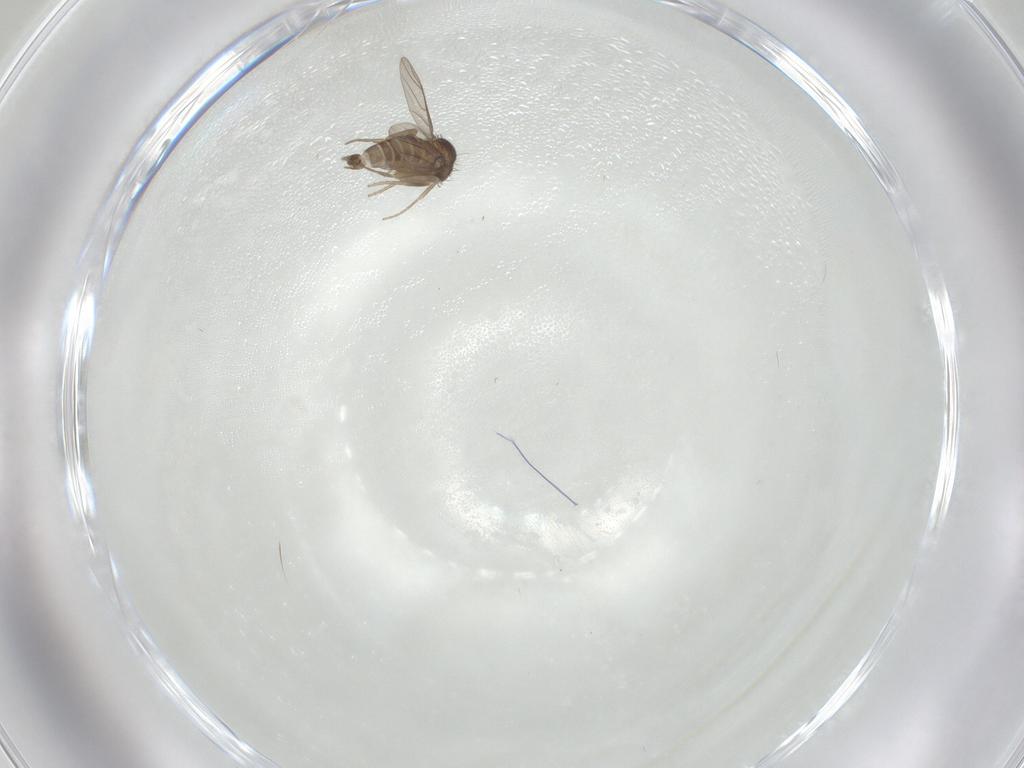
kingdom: Animalia
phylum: Arthropoda
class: Insecta
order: Diptera
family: Phoridae
